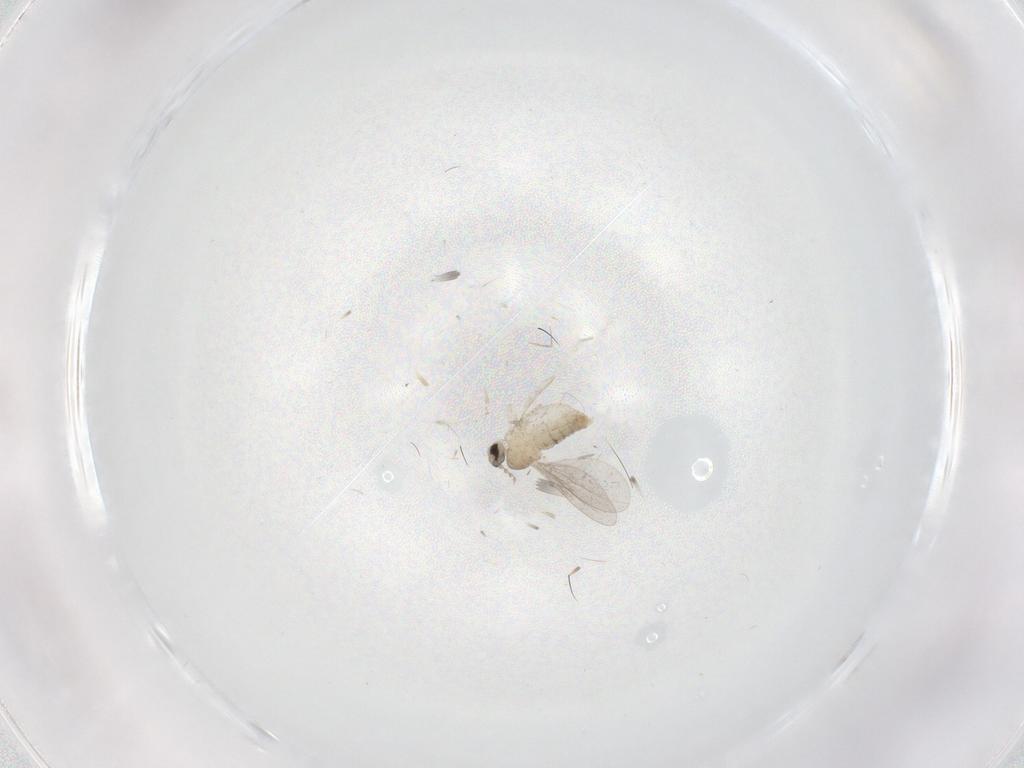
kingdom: Animalia
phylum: Arthropoda
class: Insecta
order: Diptera
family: Cecidomyiidae
